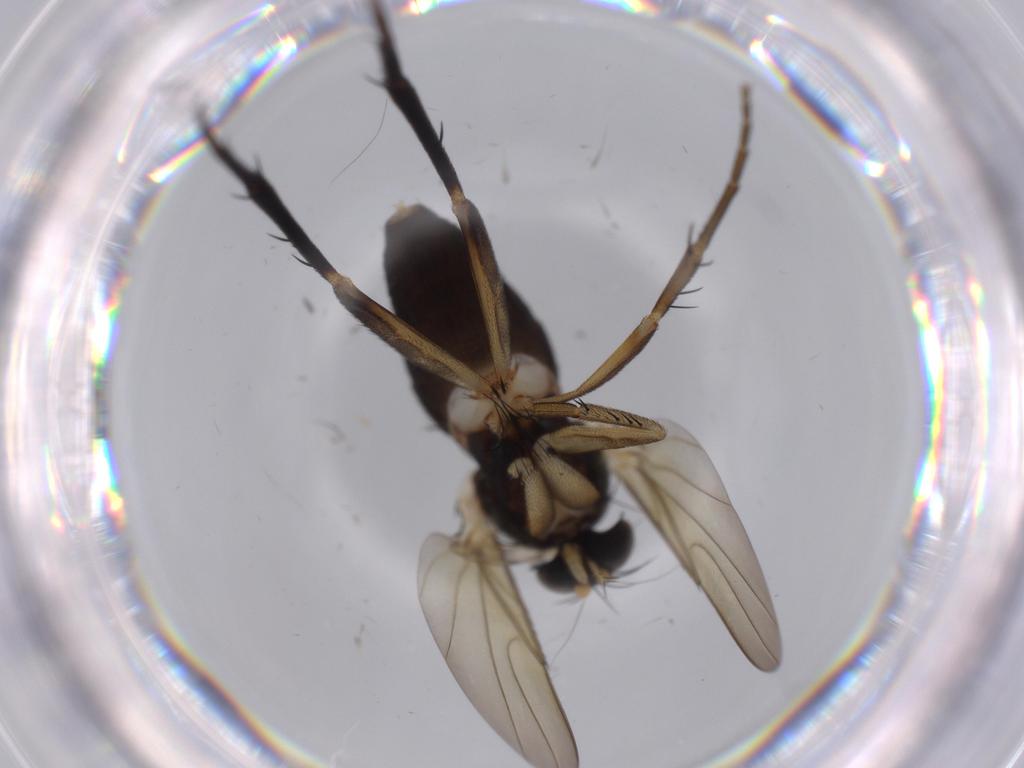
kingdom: Animalia
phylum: Arthropoda
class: Insecta
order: Diptera
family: Phoridae
